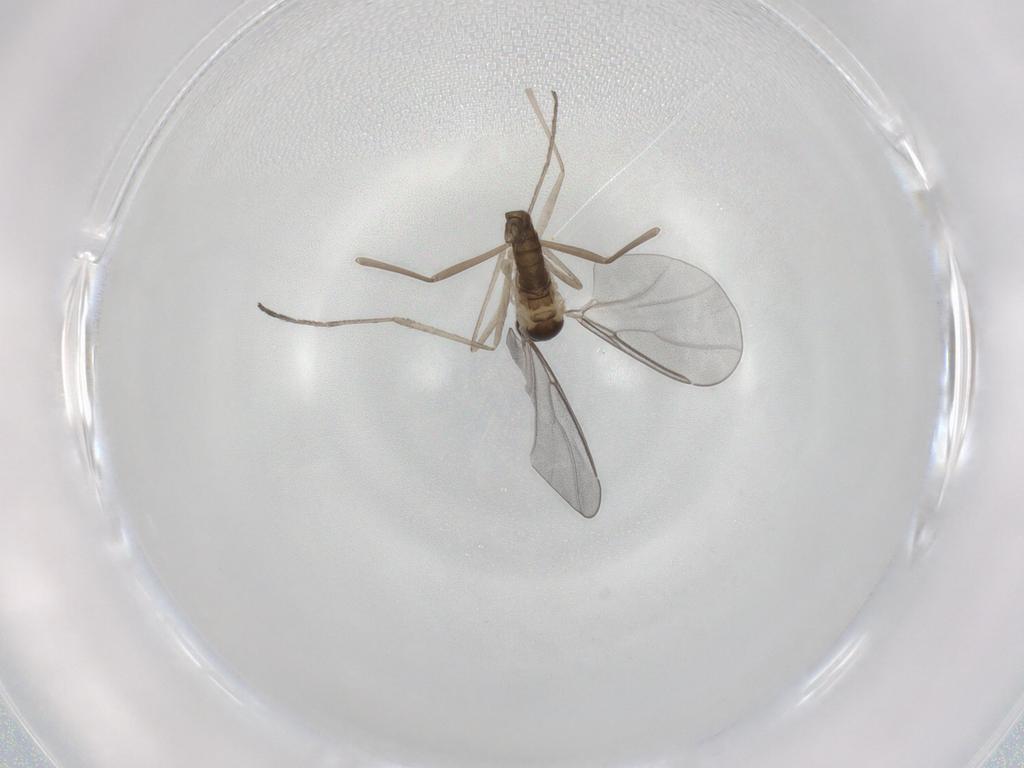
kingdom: Animalia
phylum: Arthropoda
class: Insecta
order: Diptera
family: Cecidomyiidae
